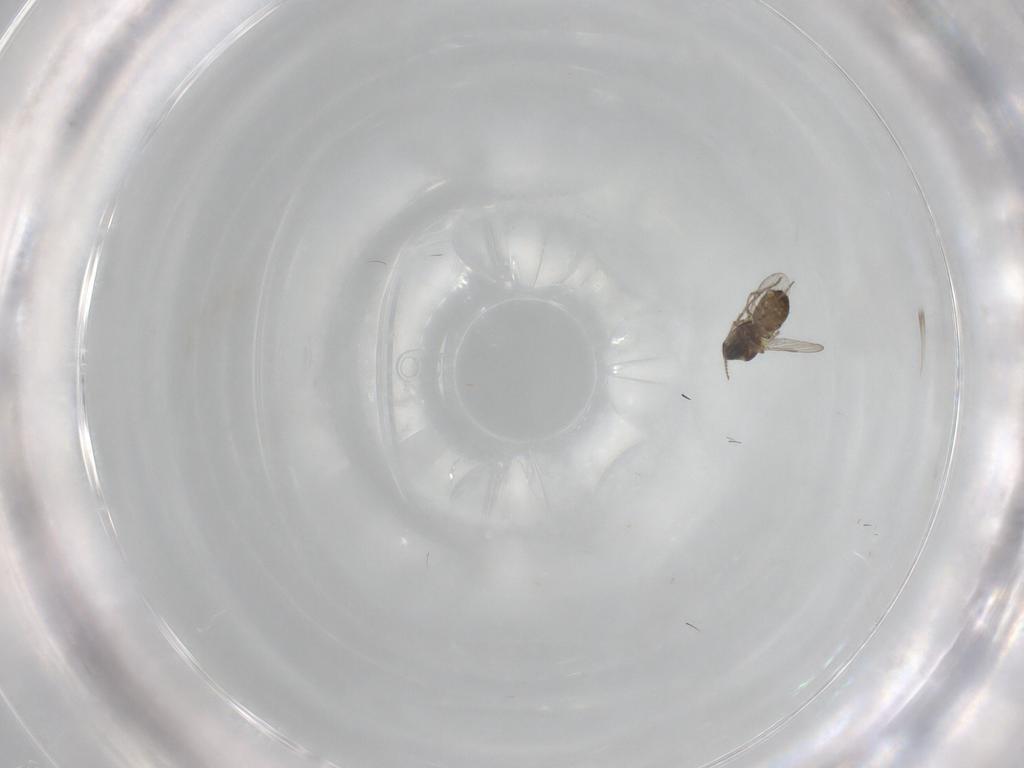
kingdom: Animalia
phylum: Arthropoda
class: Insecta
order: Diptera
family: Ceratopogonidae
